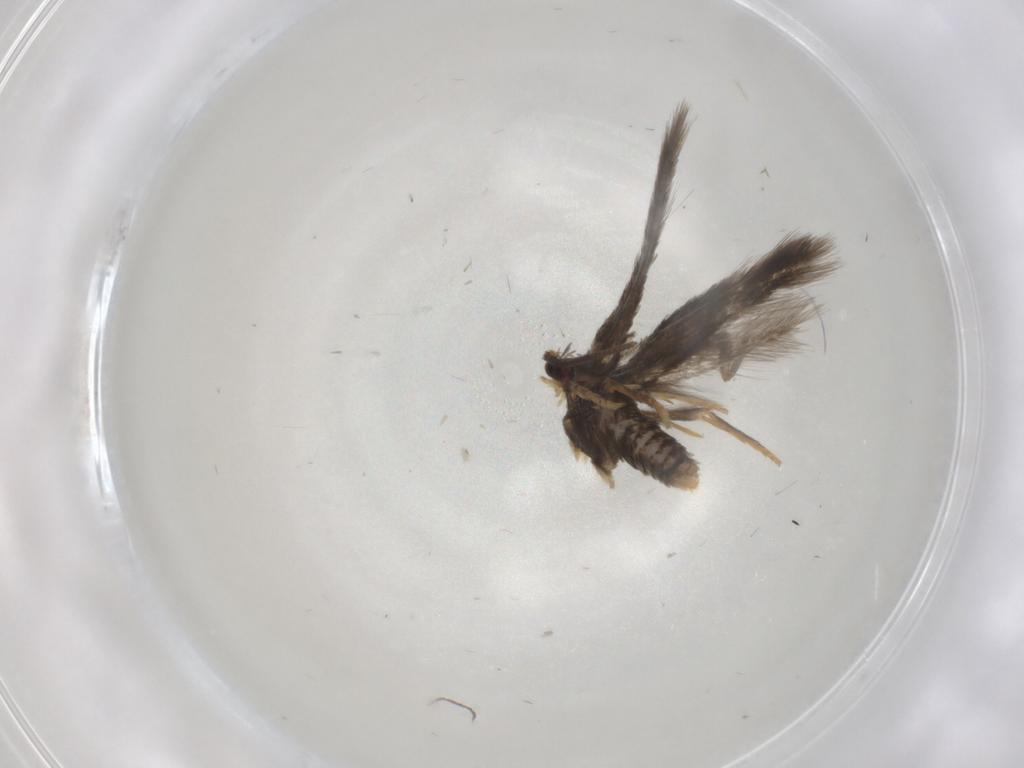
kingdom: Animalia
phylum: Arthropoda
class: Insecta
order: Lepidoptera
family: Nepticulidae
